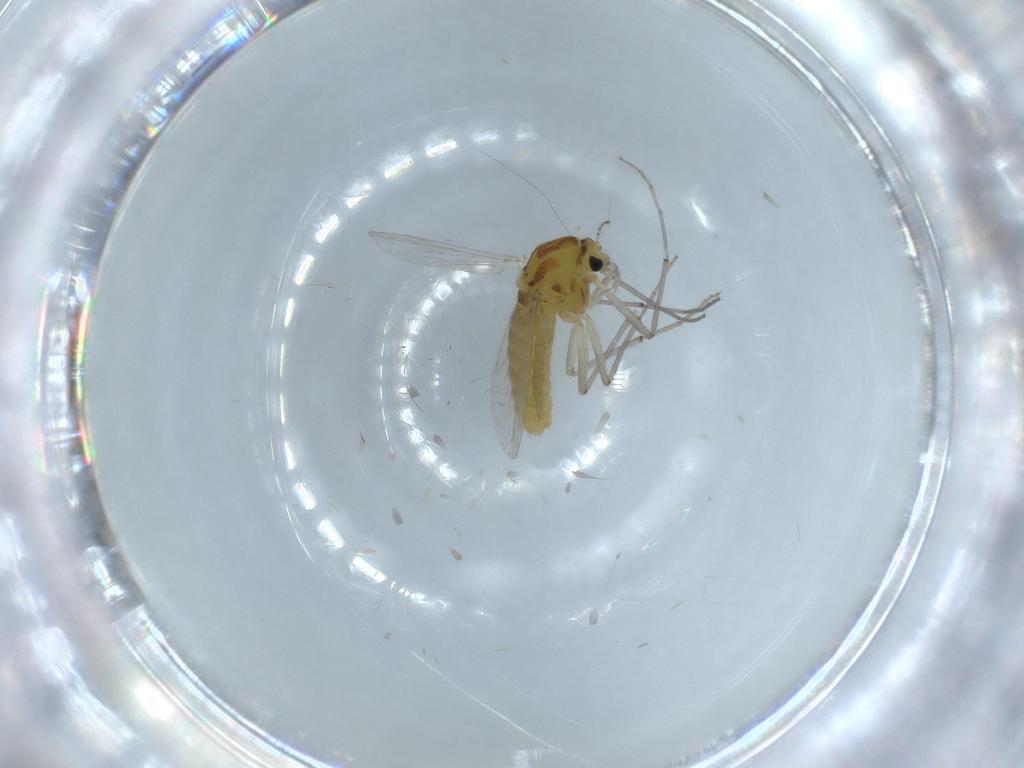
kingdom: Animalia
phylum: Arthropoda
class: Insecta
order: Diptera
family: Chironomidae
